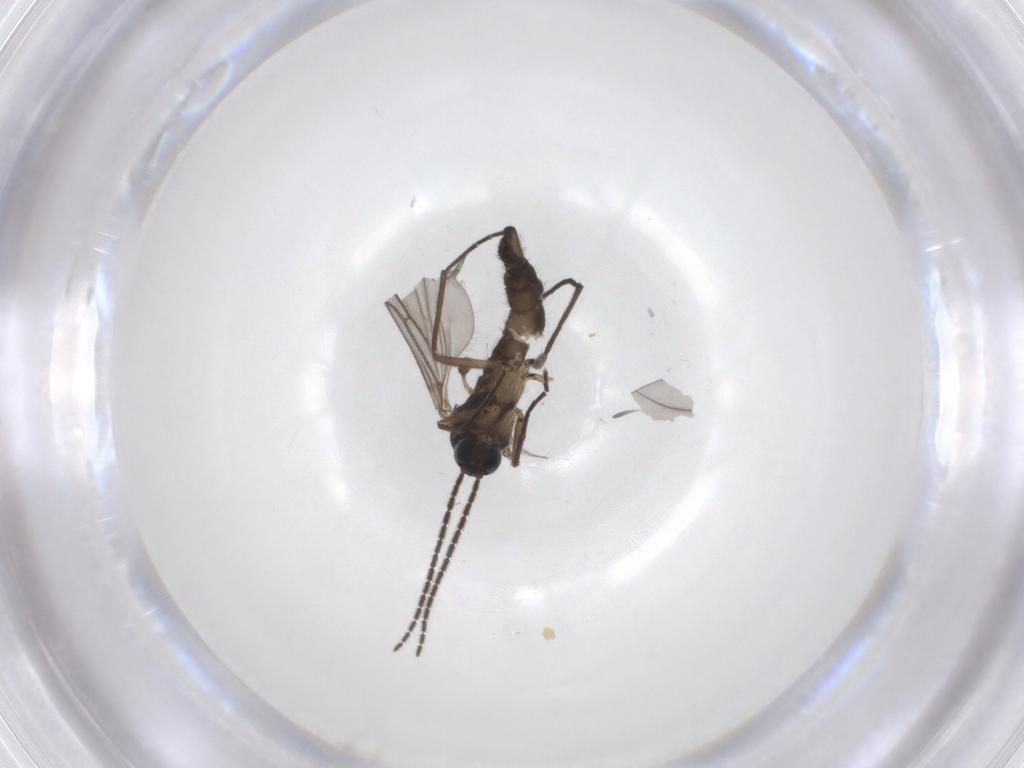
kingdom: Animalia
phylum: Arthropoda
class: Insecta
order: Diptera
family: Sciaridae
